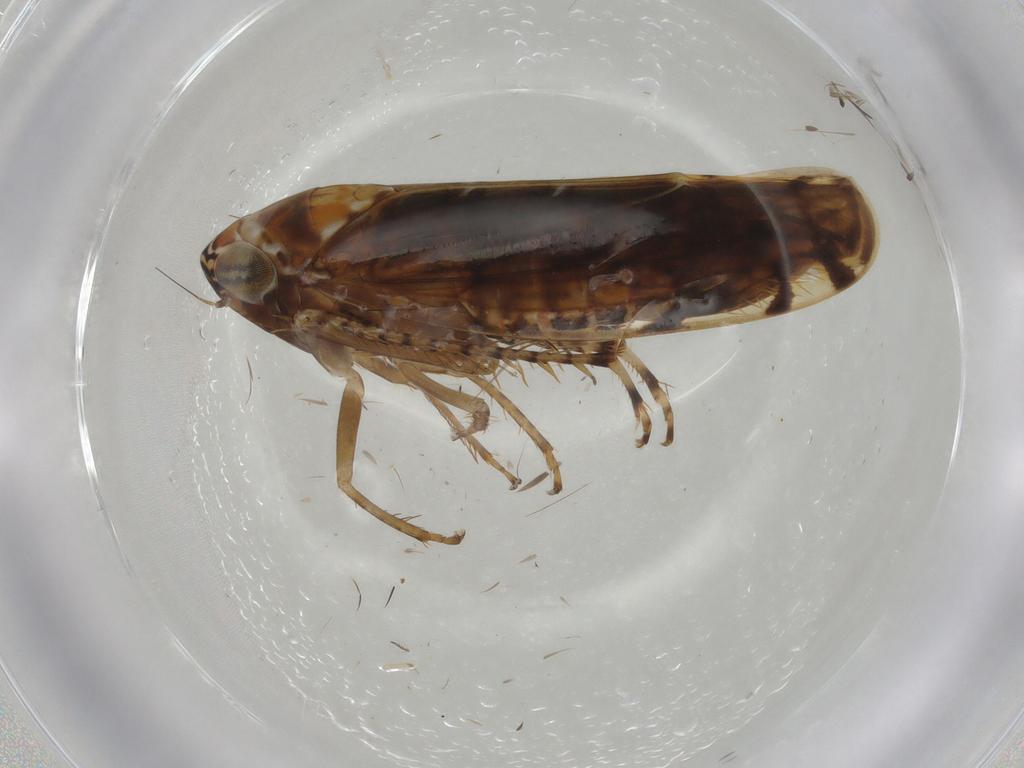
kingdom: Animalia
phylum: Arthropoda
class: Insecta
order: Hemiptera
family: Cicadellidae
